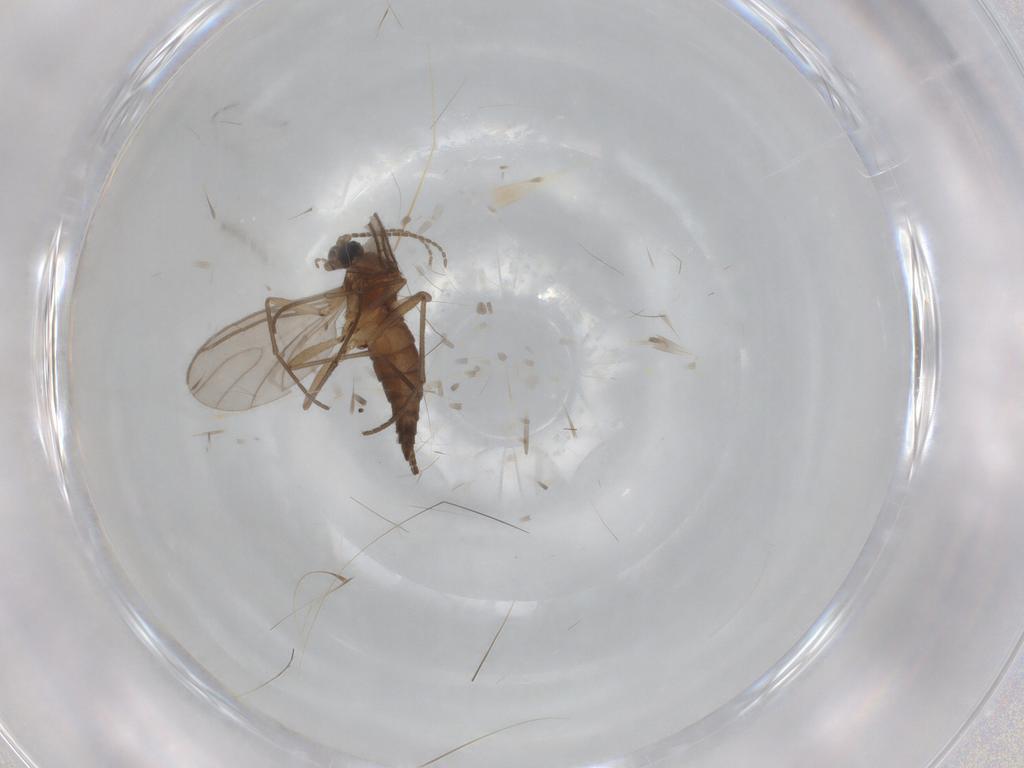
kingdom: Animalia
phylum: Arthropoda
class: Insecta
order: Diptera
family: Sciaridae
